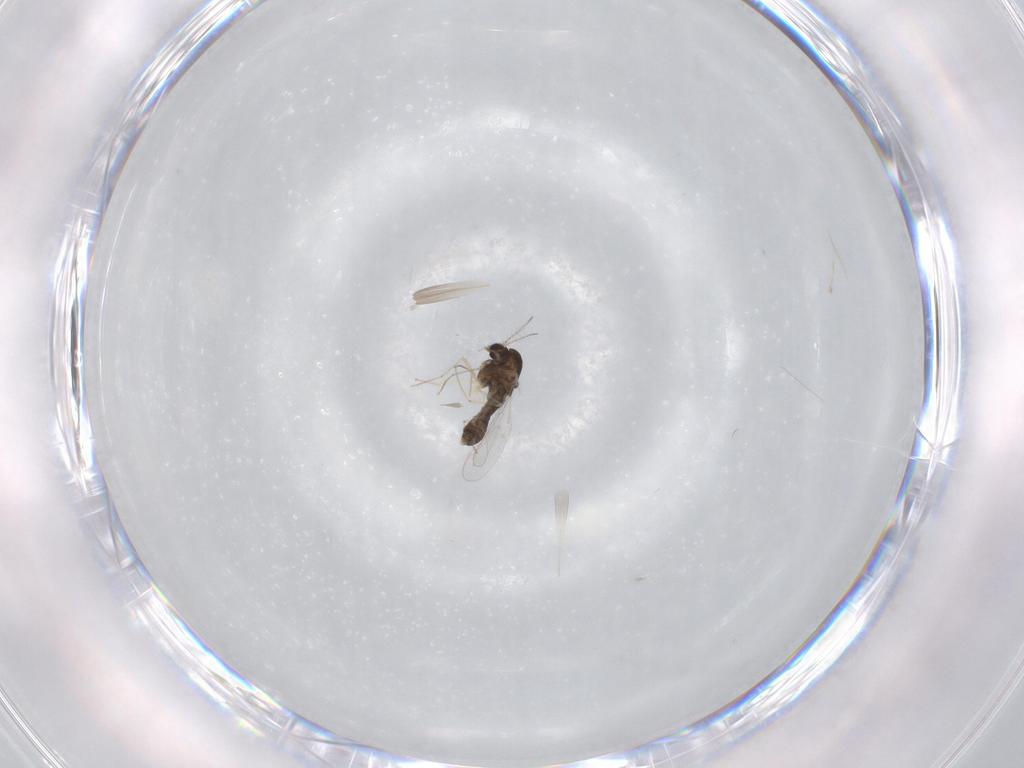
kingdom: Animalia
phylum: Arthropoda
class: Insecta
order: Diptera
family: Chironomidae
